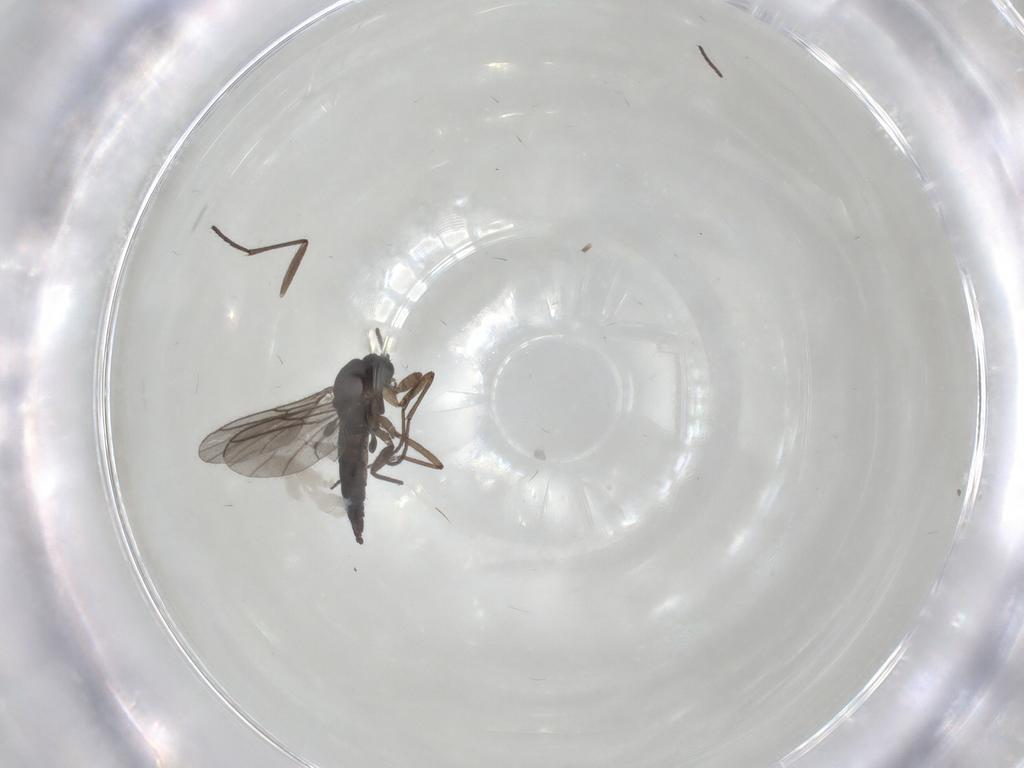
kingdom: Animalia
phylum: Arthropoda
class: Insecta
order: Diptera
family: Sciaridae
